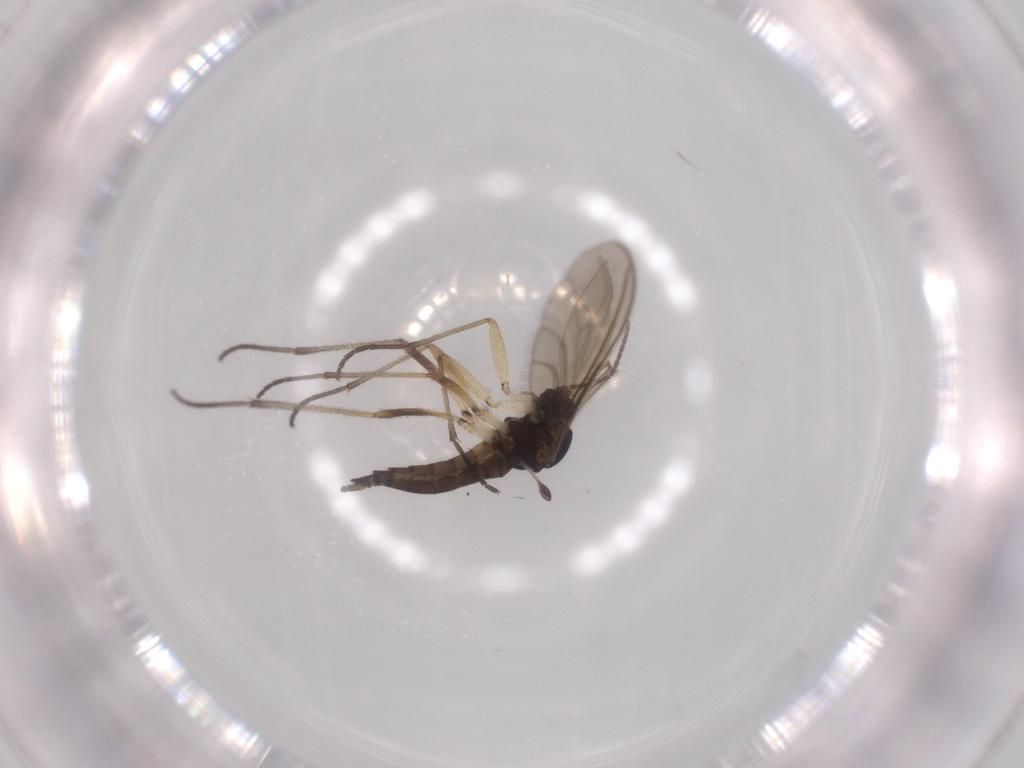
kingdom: Animalia
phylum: Arthropoda
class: Insecta
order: Diptera
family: Sciaridae
